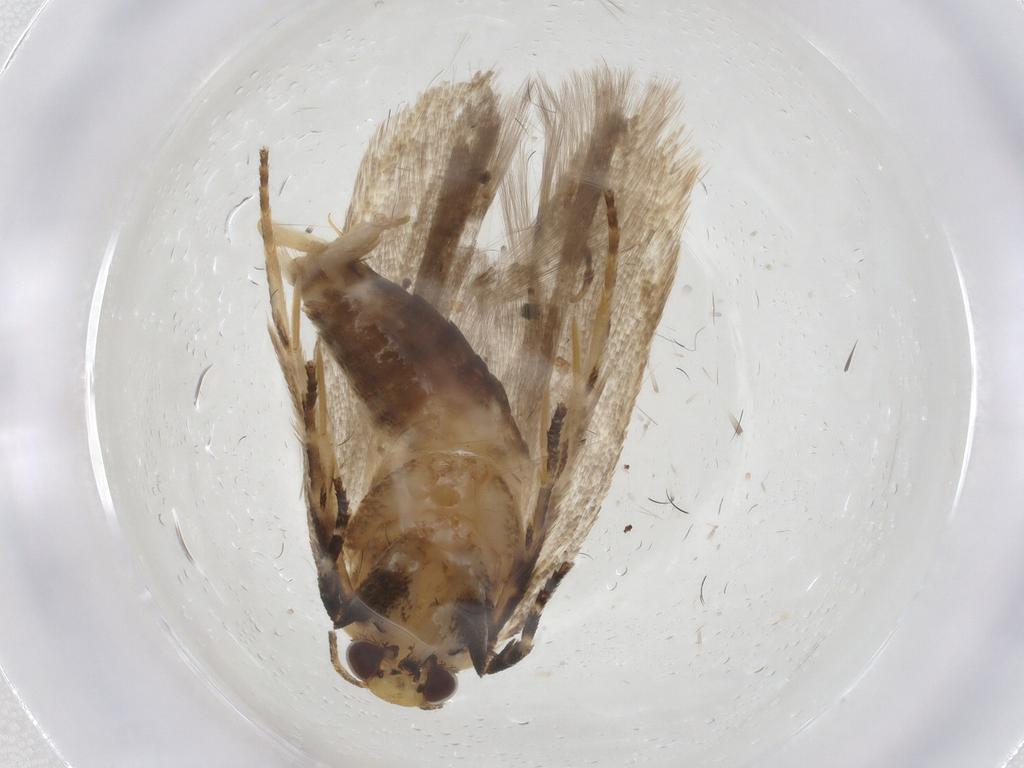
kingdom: Animalia
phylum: Arthropoda
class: Insecta
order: Lepidoptera
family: Gelechiidae
